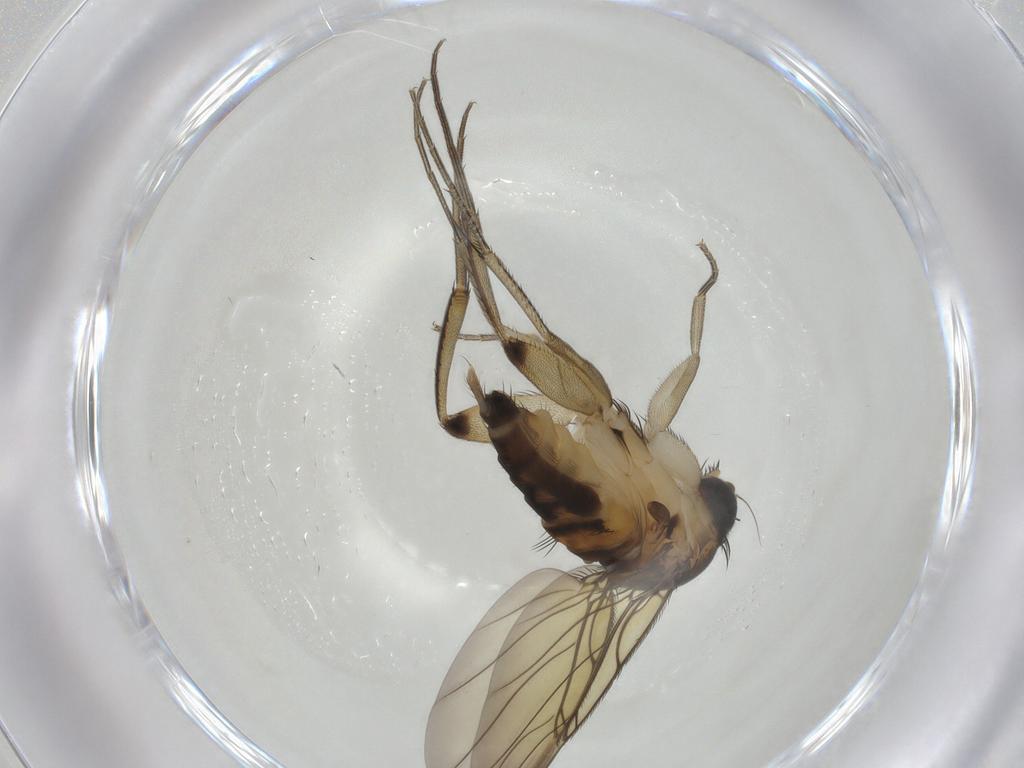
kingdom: Animalia
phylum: Arthropoda
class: Insecta
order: Diptera
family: Phoridae
